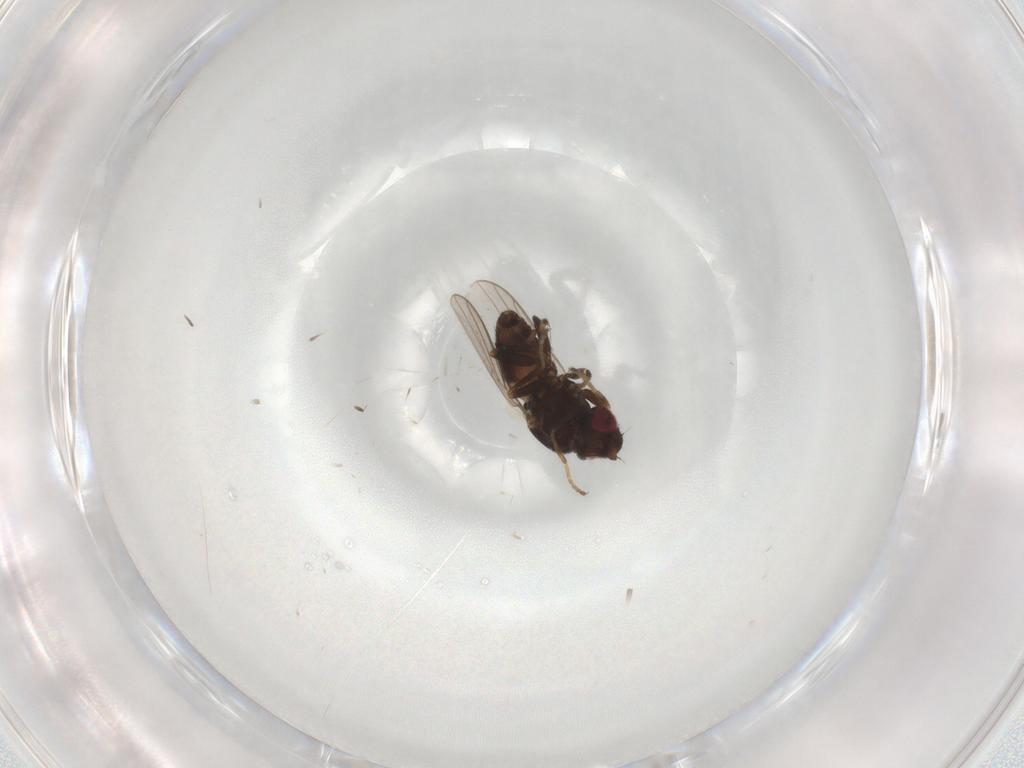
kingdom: Animalia
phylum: Arthropoda
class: Insecta
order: Diptera
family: Chloropidae
